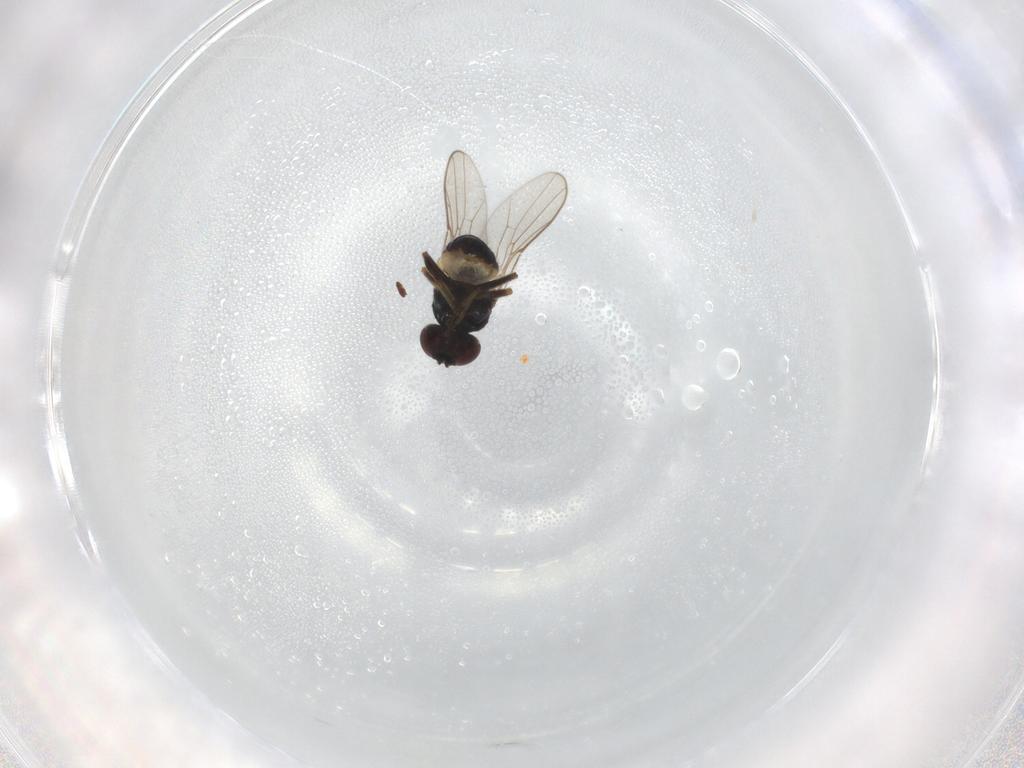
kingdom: Animalia
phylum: Arthropoda
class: Insecta
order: Diptera
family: Chloropidae
